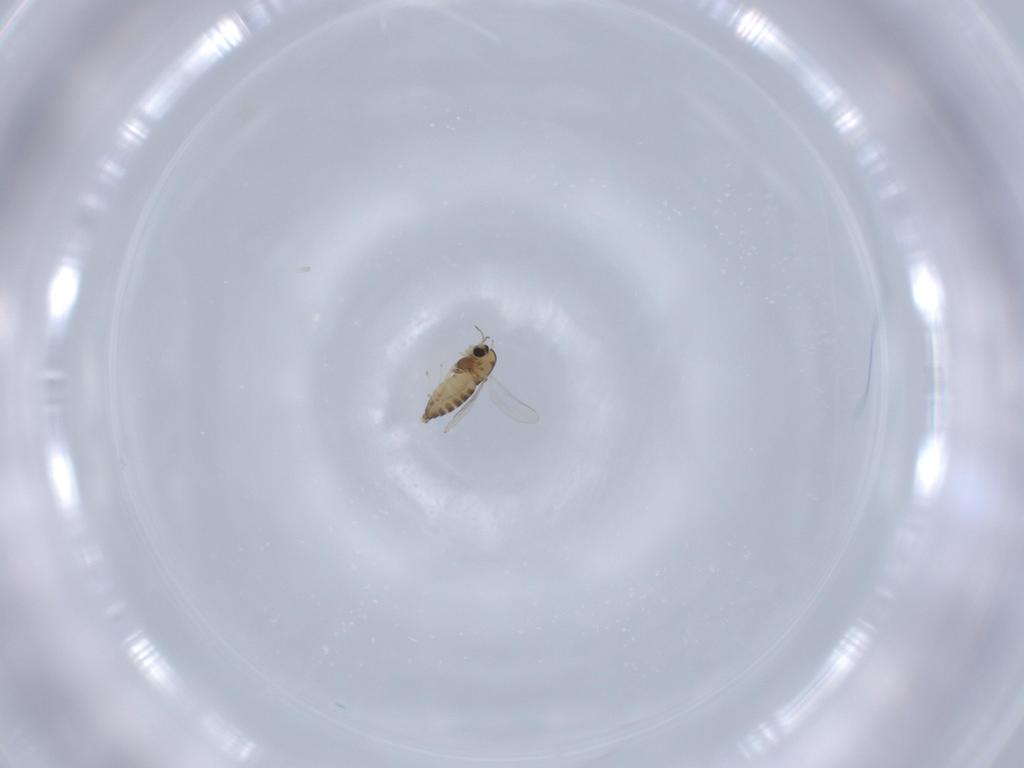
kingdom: Animalia
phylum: Arthropoda
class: Insecta
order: Diptera
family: Chironomidae
